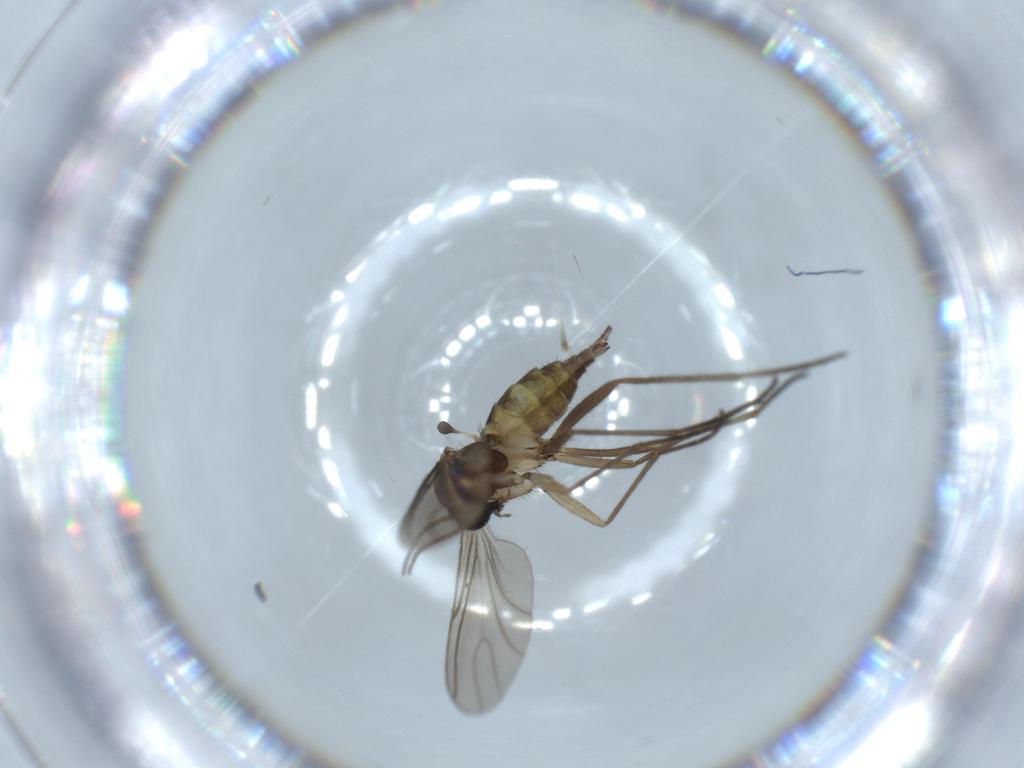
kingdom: Animalia
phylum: Arthropoda
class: Insecta
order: Diptera
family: Sciaridae
